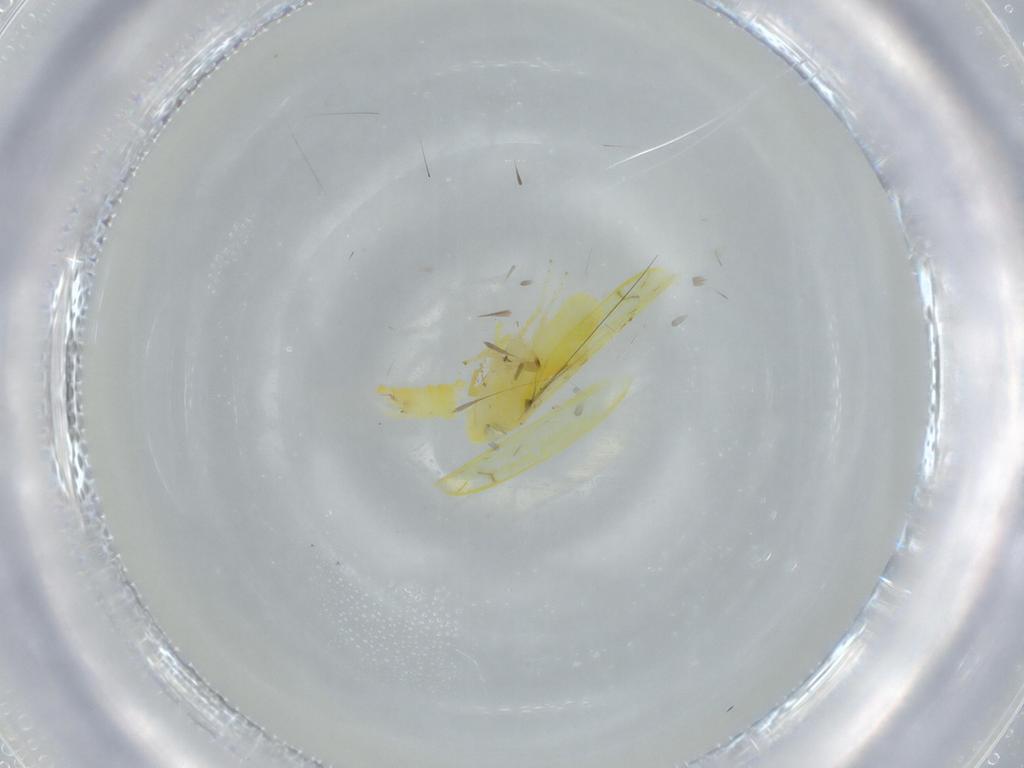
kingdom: Animalia
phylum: Arthropoda
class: Insecta
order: Hemiptera
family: Cicadellidae
